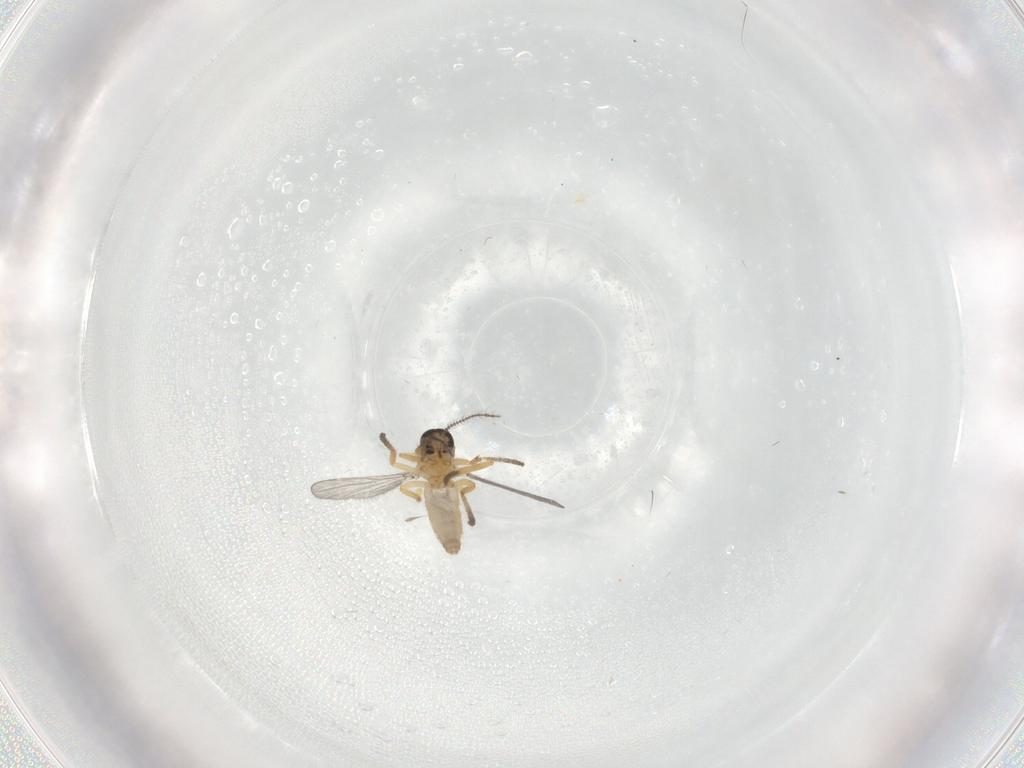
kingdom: Animalia
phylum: Arthropoda
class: Insecta
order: Diptera
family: Ceratopogonidae
